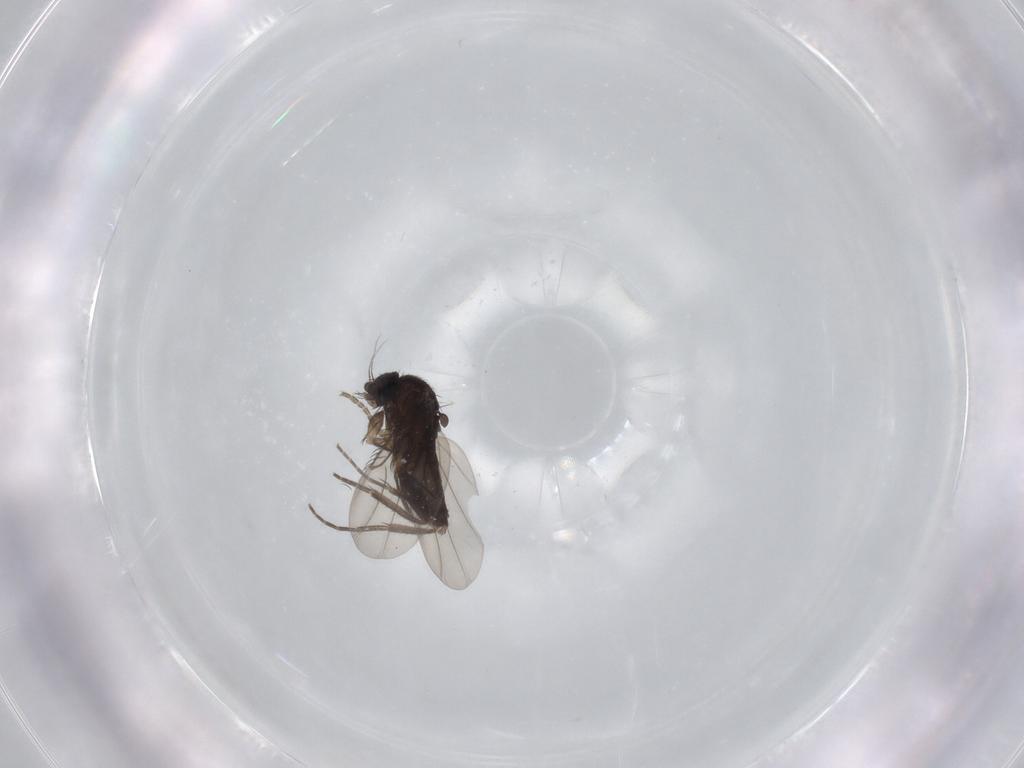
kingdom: Animalia
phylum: Arthropoda
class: Insecta
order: Diptera
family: Phoridae
